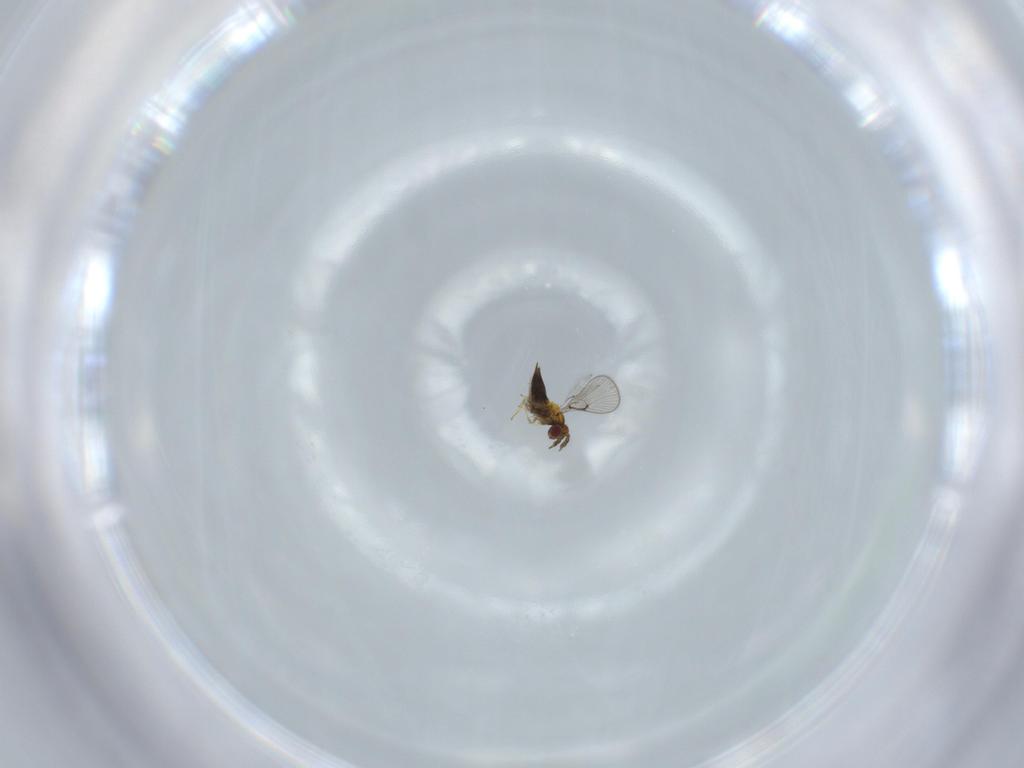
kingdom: Animalia
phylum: Arthropoda
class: Insecta
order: Hymenoptera
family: Trichogrammatidae
